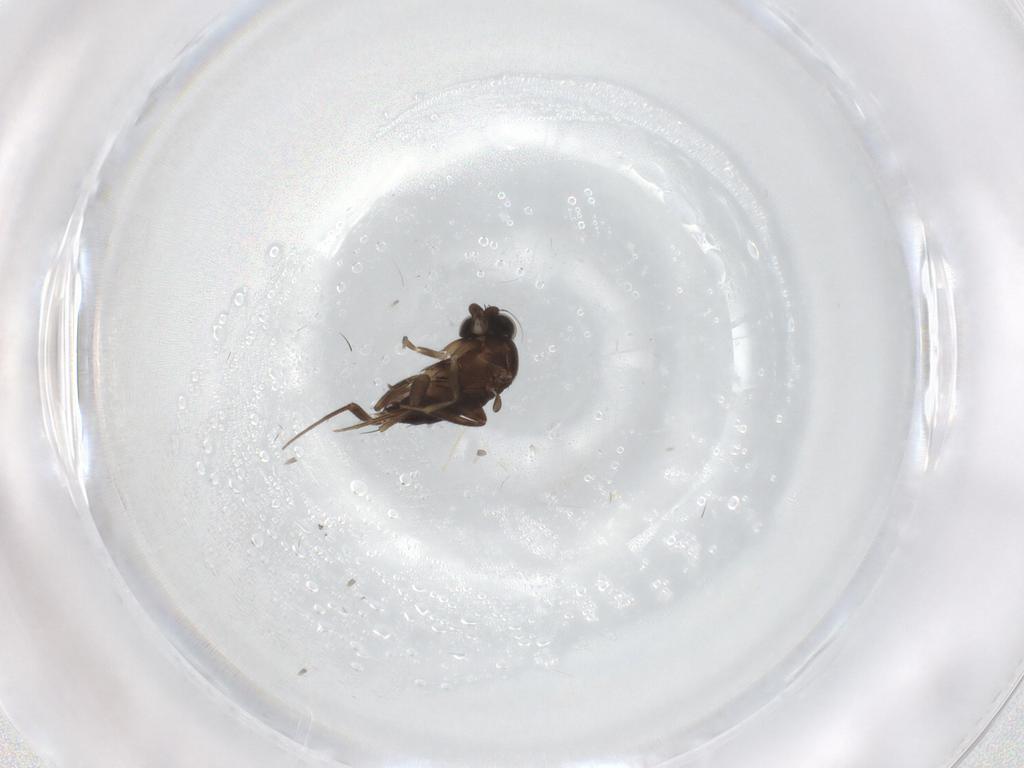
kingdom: Animalia
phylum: Arthropoda
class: Insecta
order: Diptera
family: Phoridae
